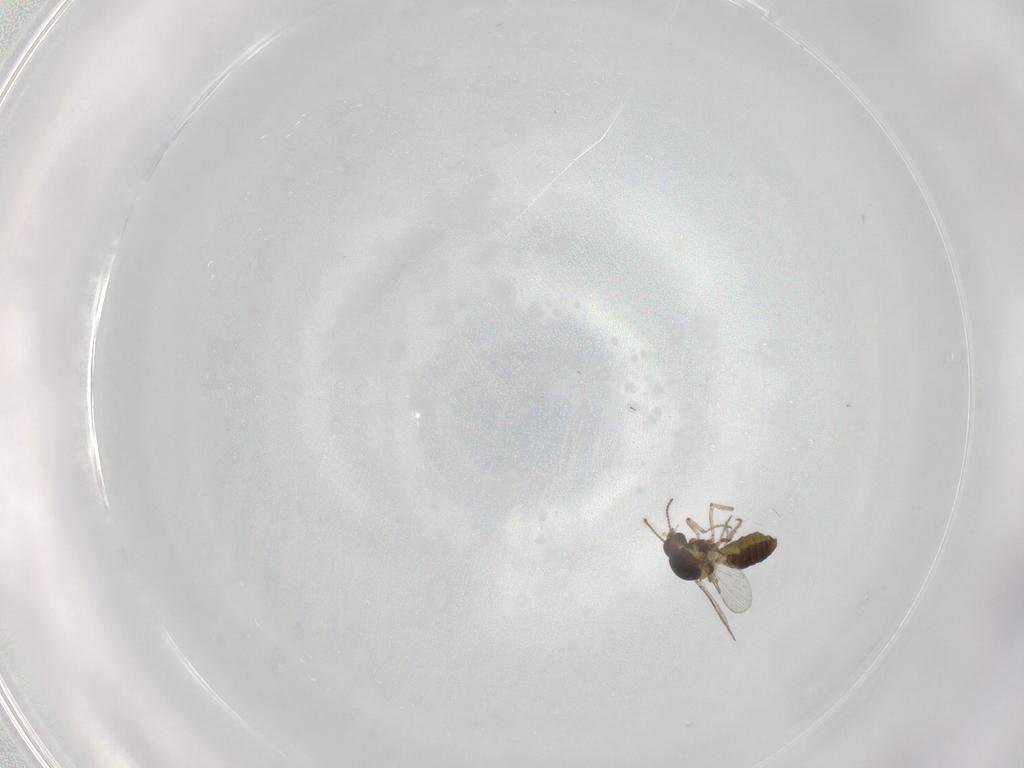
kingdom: Animalia
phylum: Arthropoda
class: Insecta
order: Diptera
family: Ceratopogonidae
